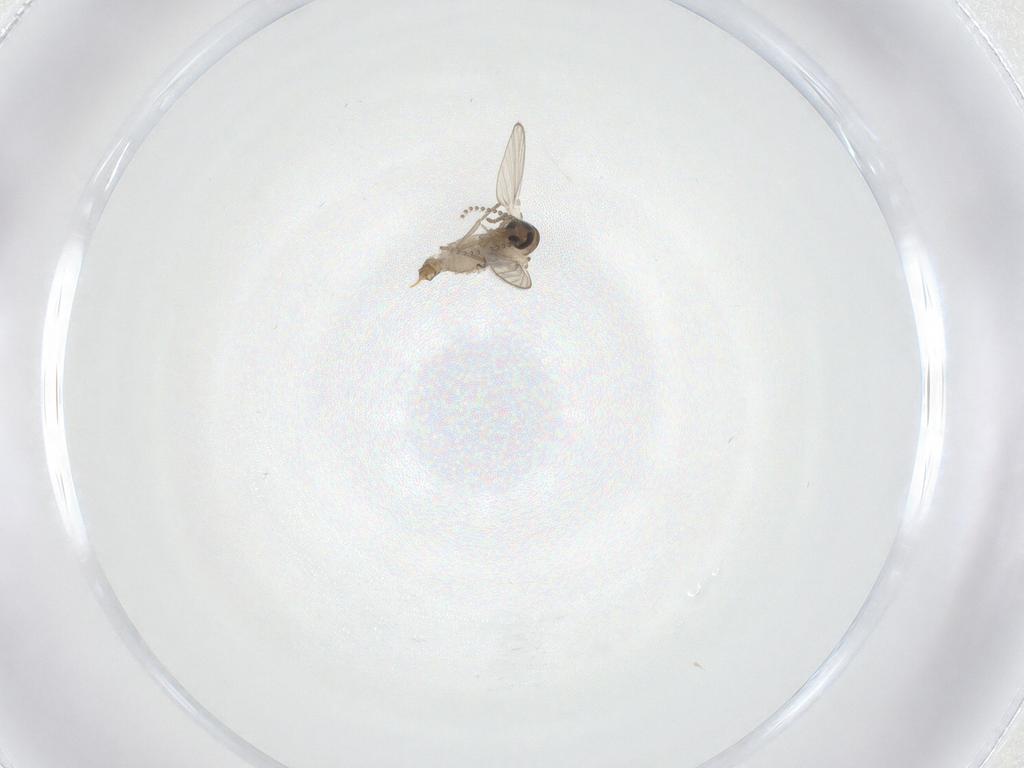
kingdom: Animalia
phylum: Arthropoda
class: Insecta
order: Diptera
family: Psychodidae
